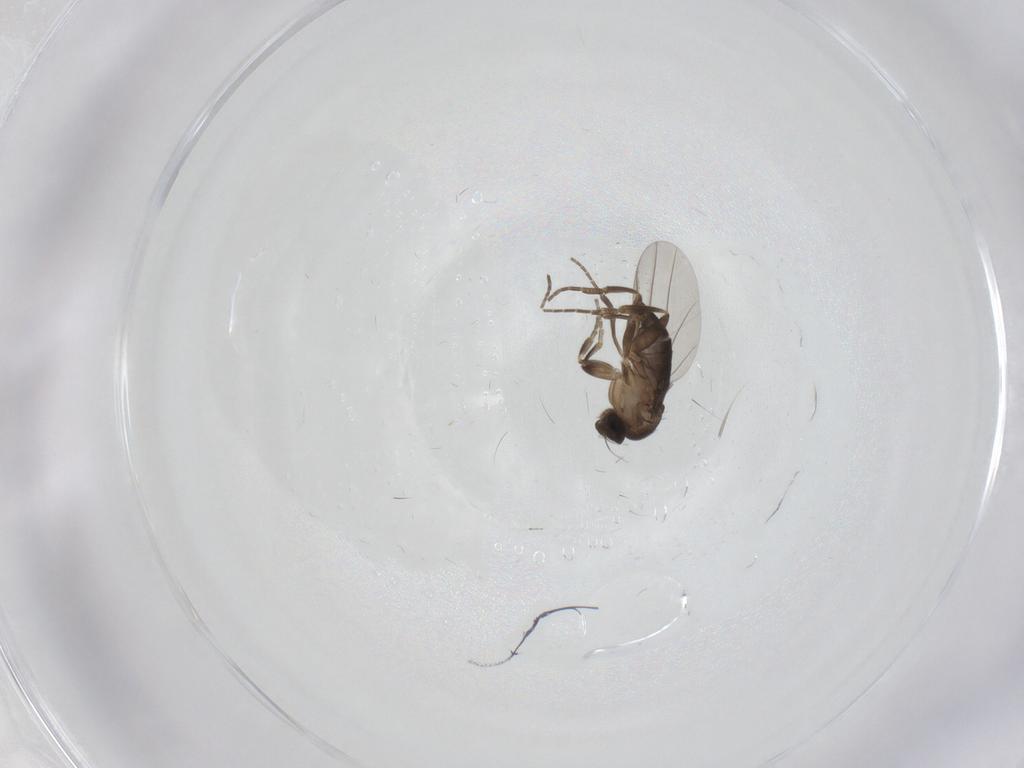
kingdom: Animalia
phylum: Arthropoda
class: Insecta
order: Diptera
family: Phoridae
